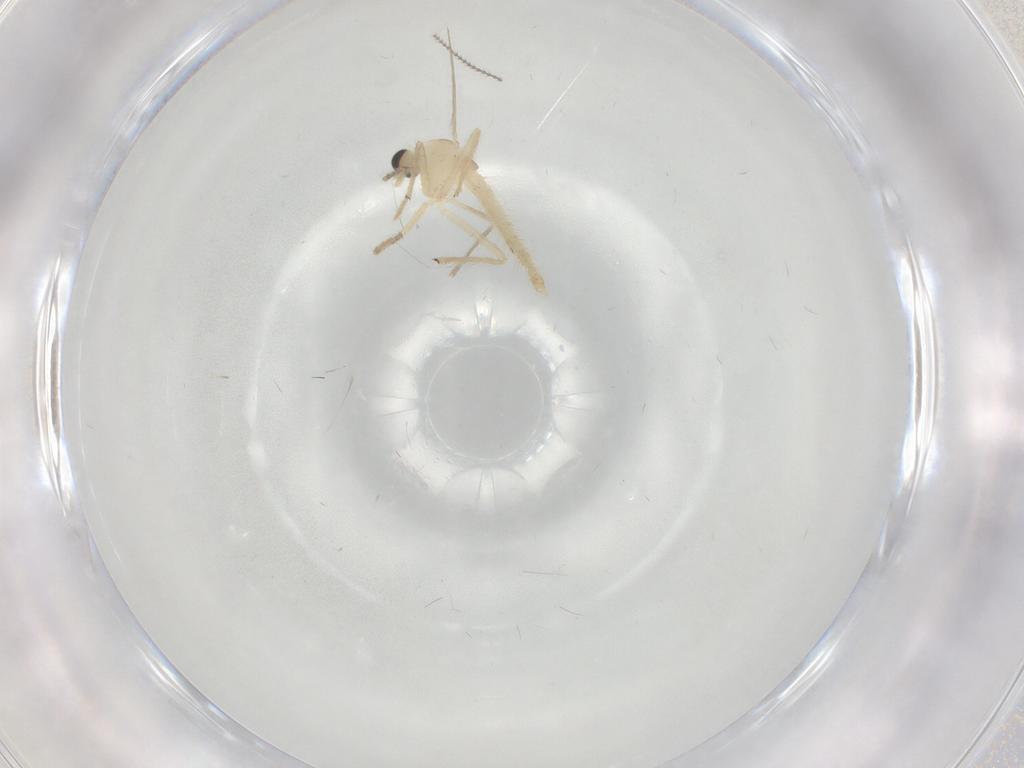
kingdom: Animalia
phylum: Arthropoda
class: Insecta
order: Diptera
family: Cecidomyiidae
